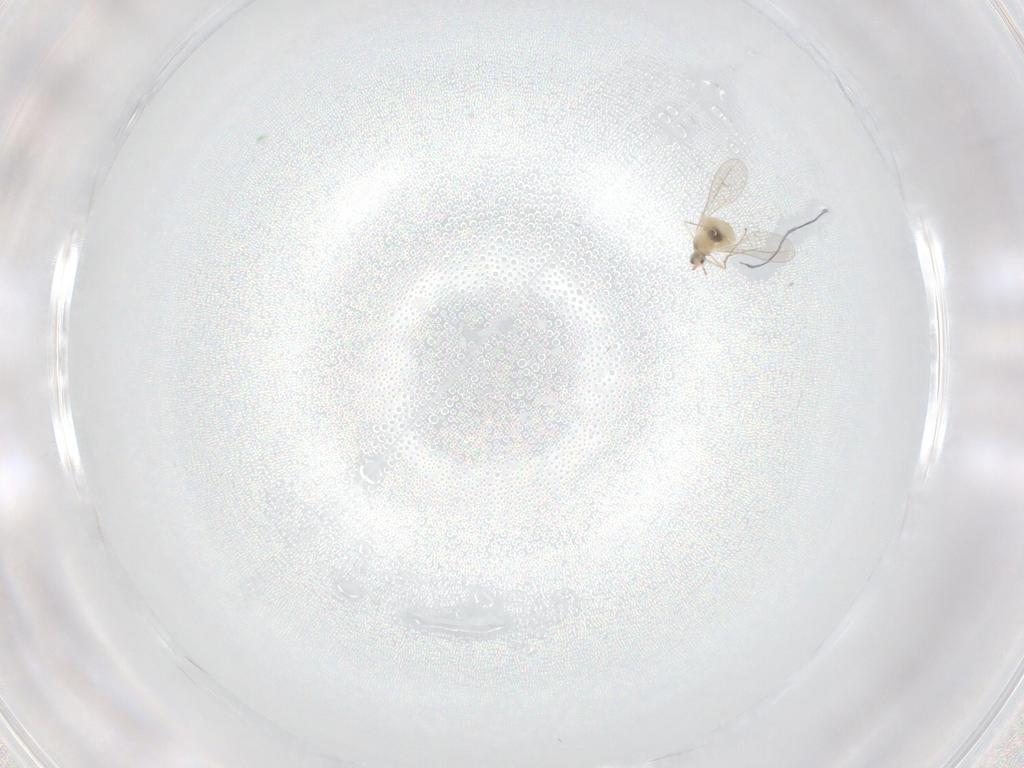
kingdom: Animalia
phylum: Arthropoda
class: Insecta
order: Diptera
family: Cecidomyiidae
